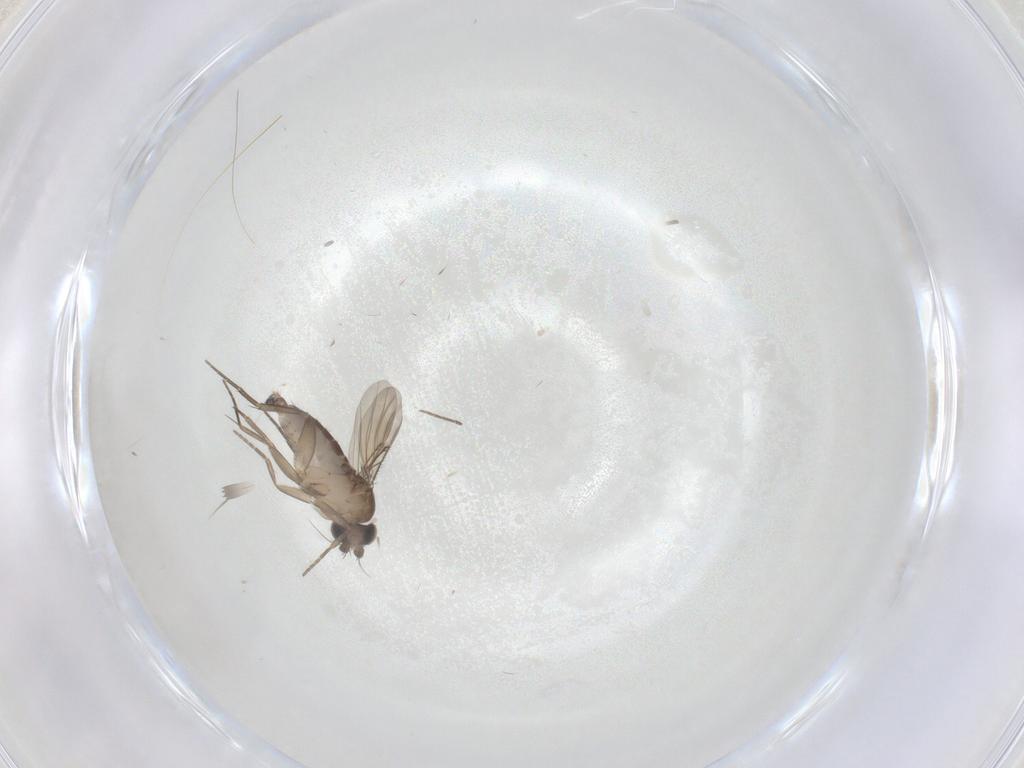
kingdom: Animalia
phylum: Arthropoda
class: Insecta
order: Diptera
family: Phoridae
